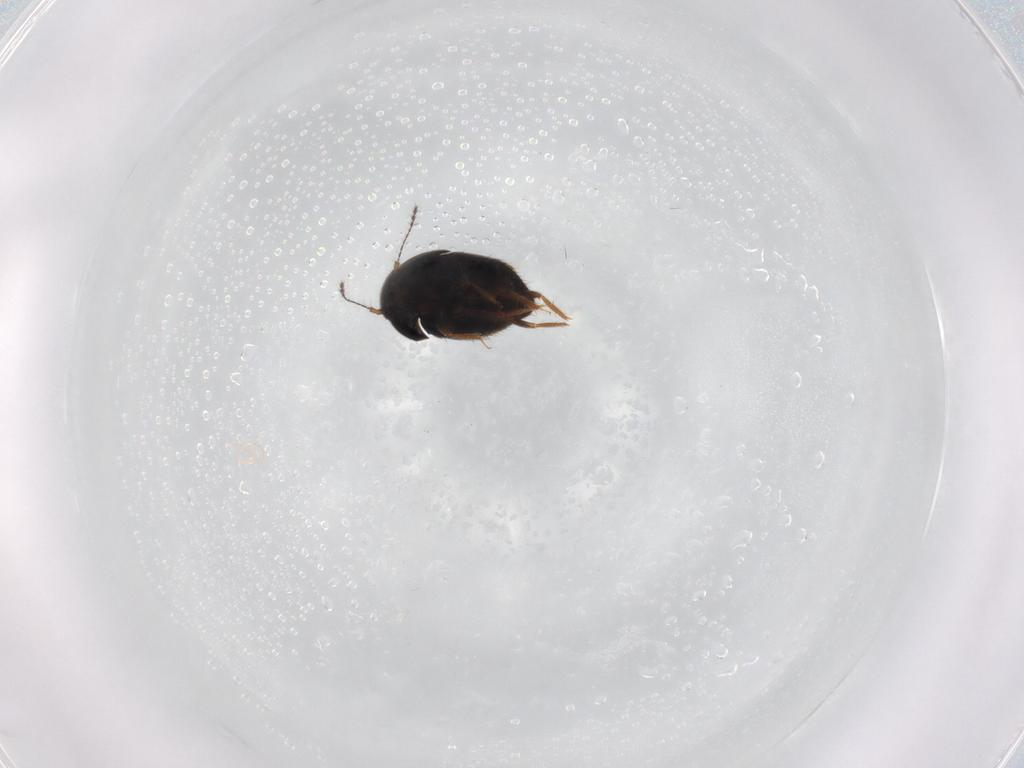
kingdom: Animalia
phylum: Arthropoda
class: Insecta
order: Coleoptera
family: Ptiliidae
